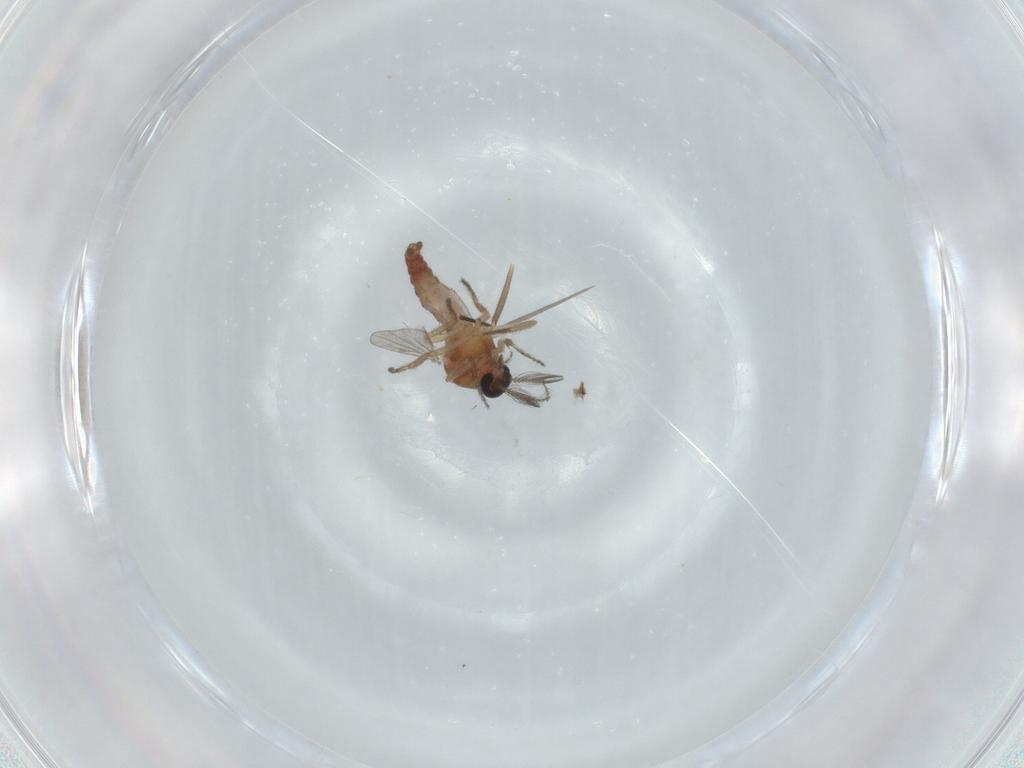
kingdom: Animalia
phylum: Arthropoda
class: Insecta
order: Diptera
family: Ceratopogonidae
